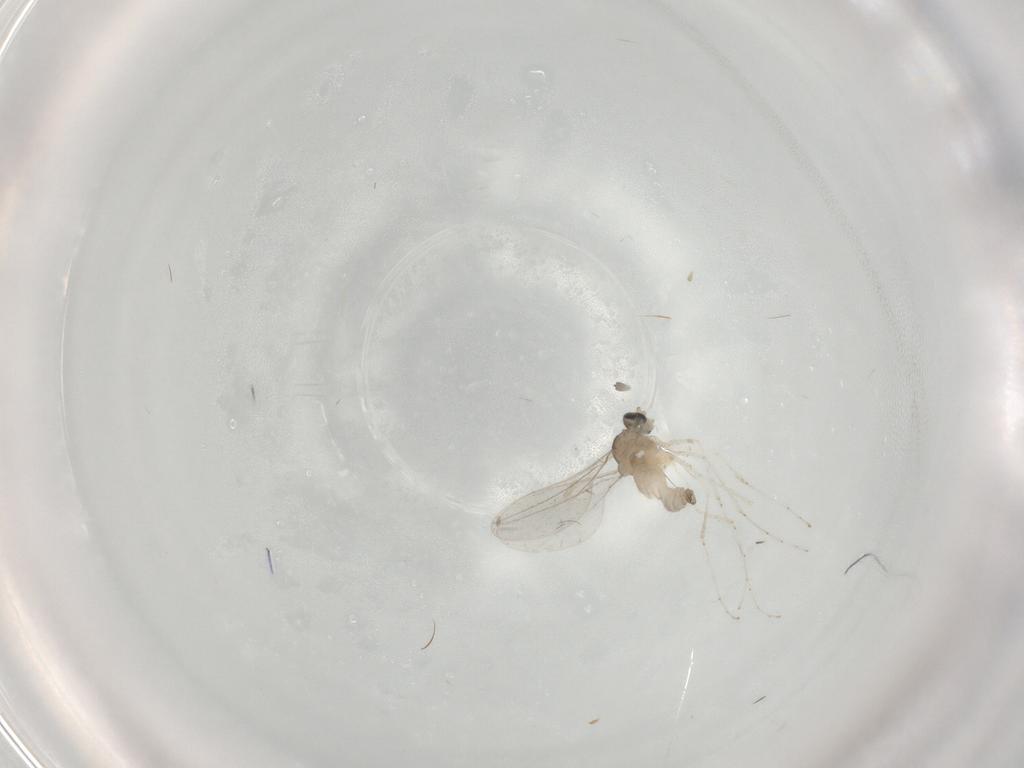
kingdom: Animalia
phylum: Arthropoda
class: Insecta
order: Diptera
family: Cecidomyiidae
